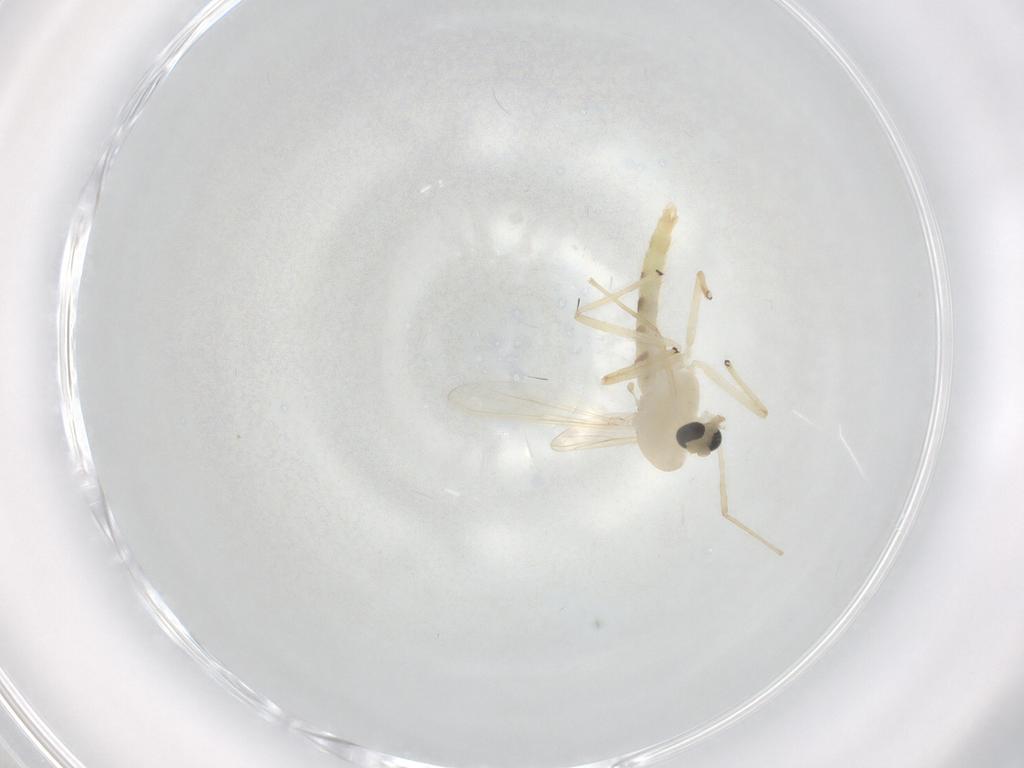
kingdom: Animalia
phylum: Arthropoda
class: Insecta
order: Diptera
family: Chironomidae
